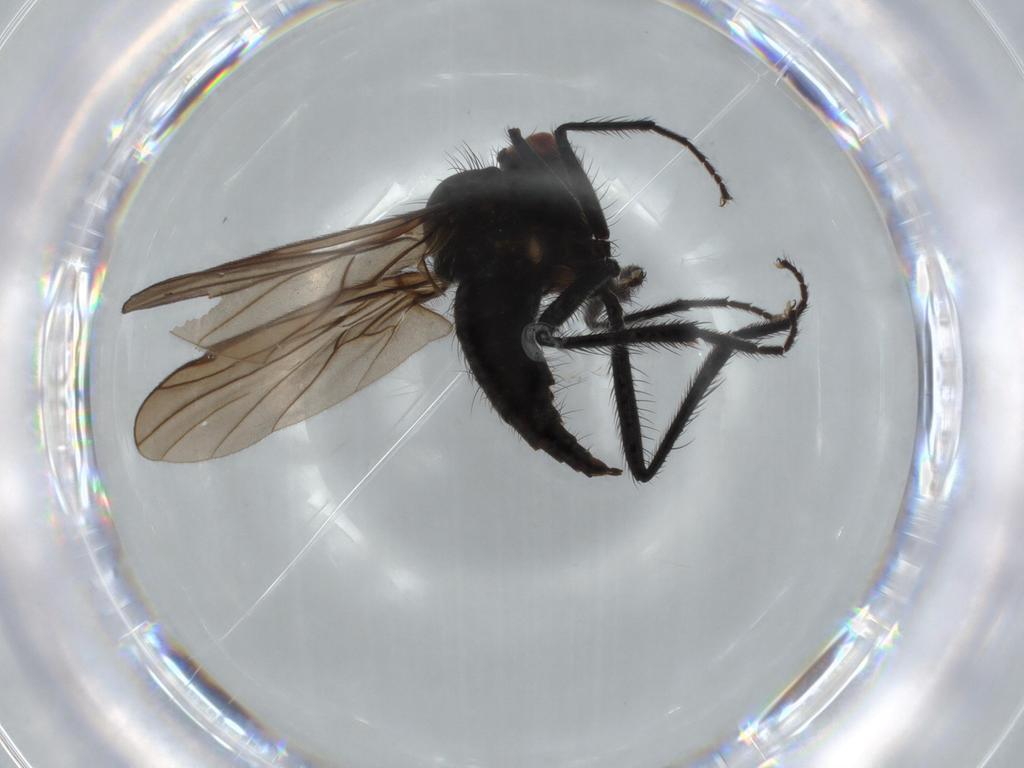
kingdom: Animalia
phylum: Arthropoda
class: Insecta
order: Diptera
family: Hybotidae
